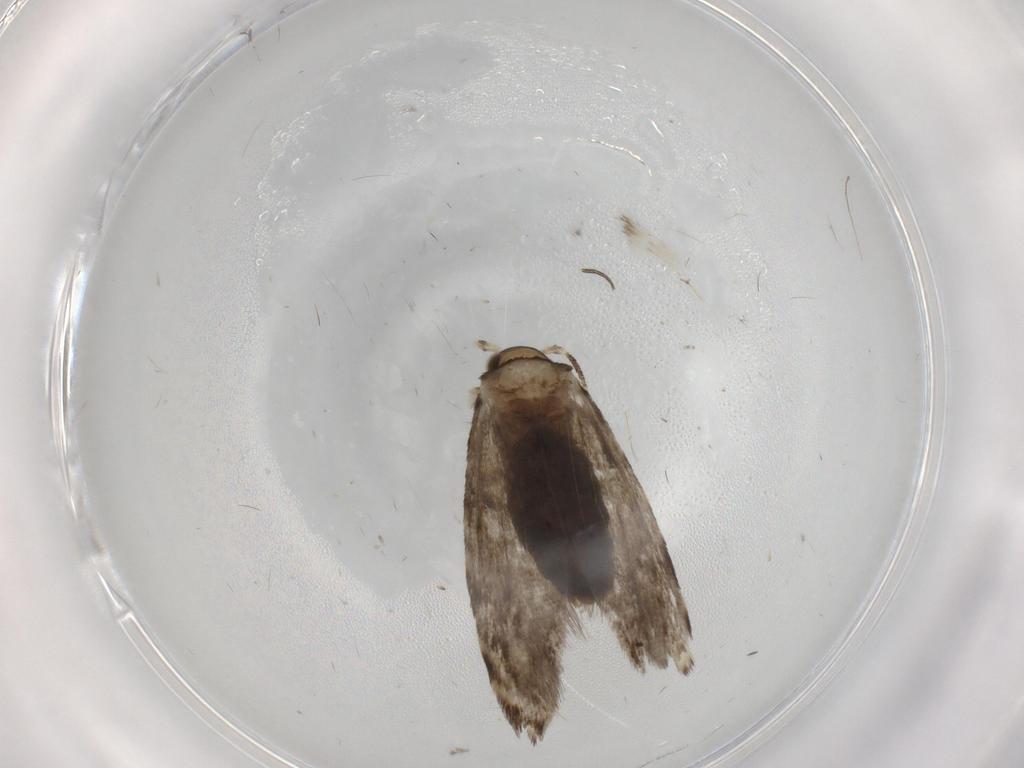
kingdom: Animalia
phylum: Arthropoda
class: Insecta
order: Lepidoptera
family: Tineidae
